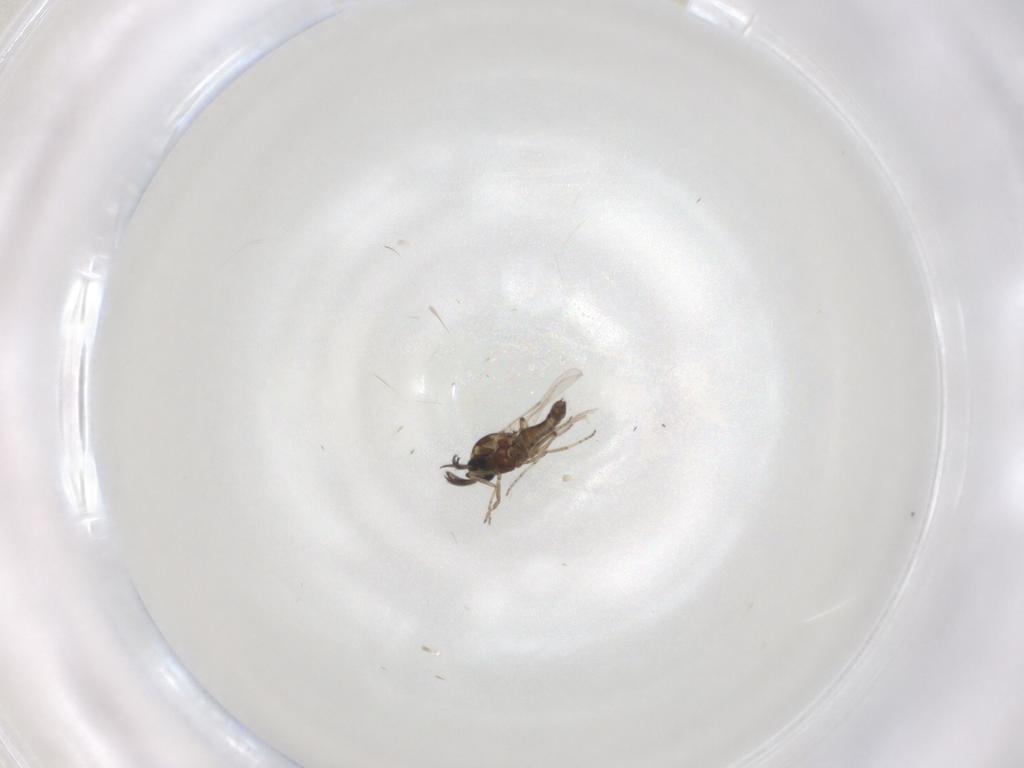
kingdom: Animalia
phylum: Arthropoda
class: Insecta
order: Diptera
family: Ceratopogonidae
